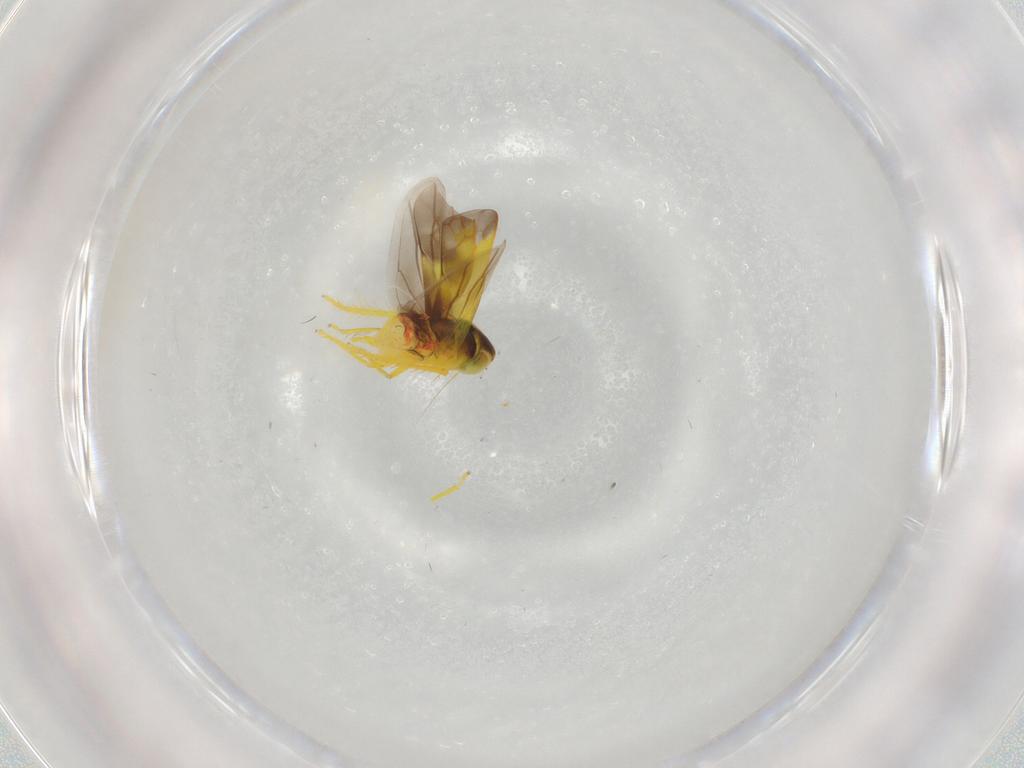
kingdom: Animalia
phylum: Arthropoda
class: Insecta
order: Hemiptera
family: Cicadellidae
